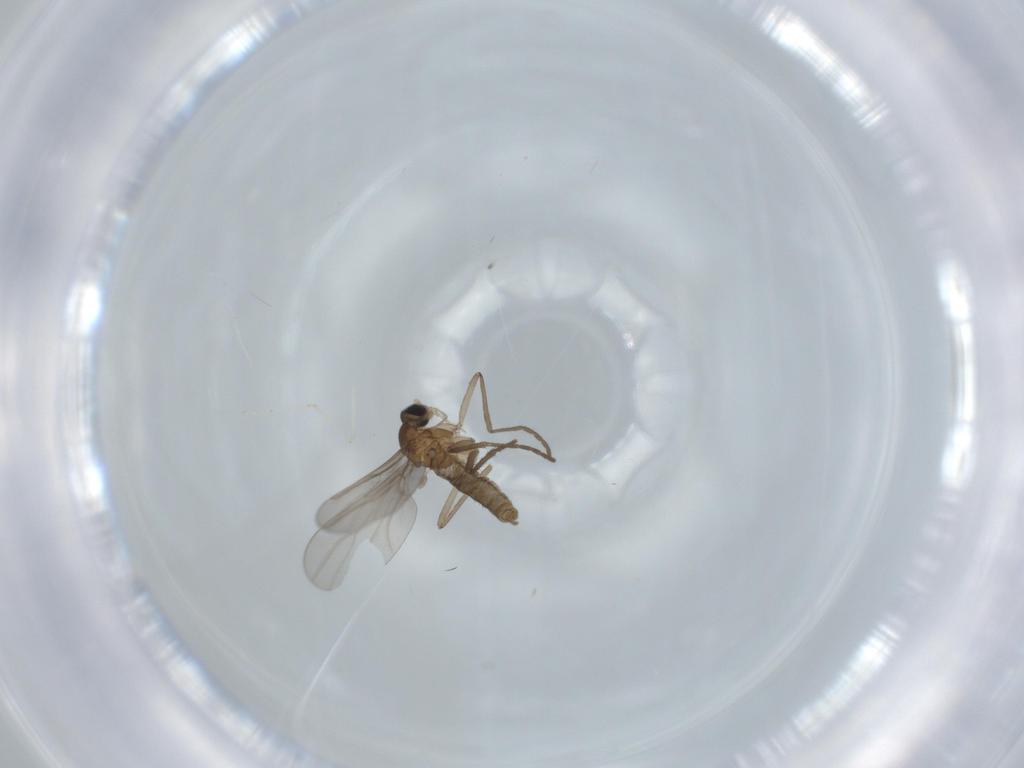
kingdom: Animalia
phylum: Arthropoda
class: Insecta
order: Diptera
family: Cecidomyiidae
